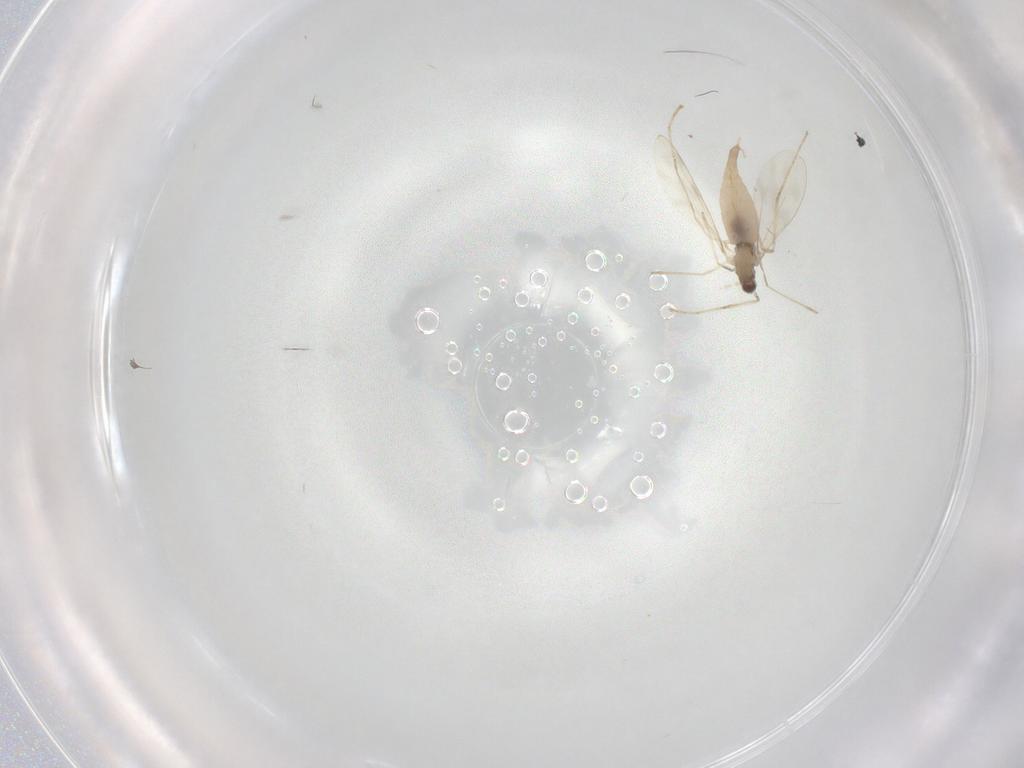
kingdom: Animalia
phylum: Arthropoda
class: Insecta
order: Diptera
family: Cecidomyiidae
